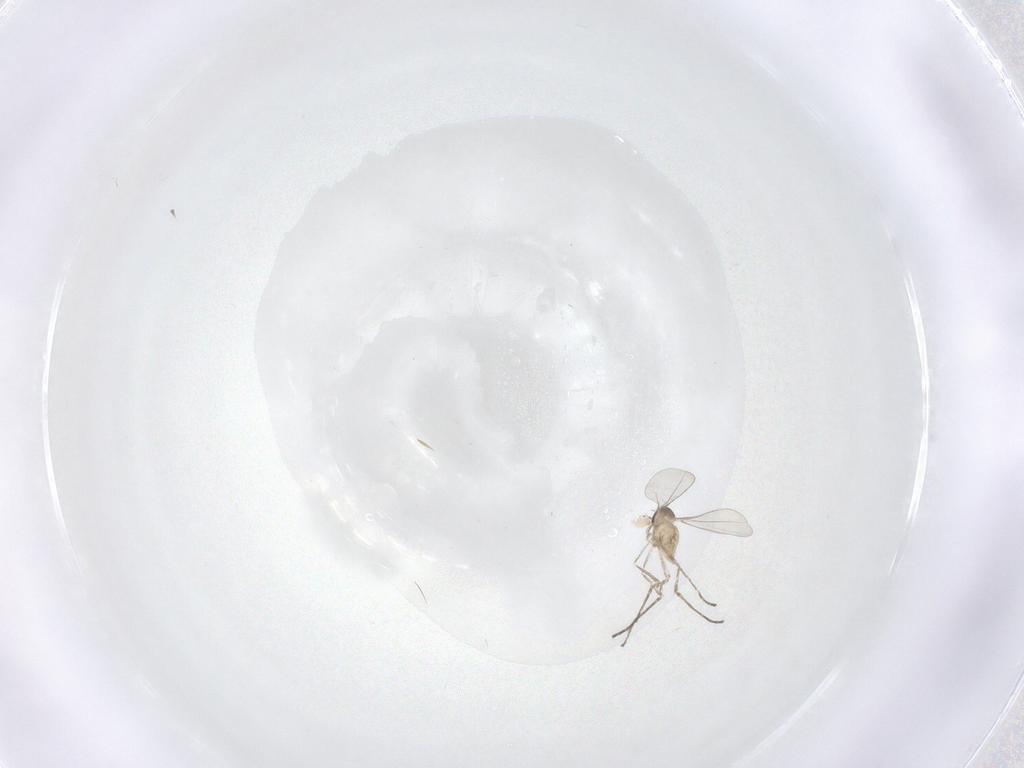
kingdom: Animalia
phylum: Arthropoda
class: Insecta
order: Diptera
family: Cecidomyiidae
